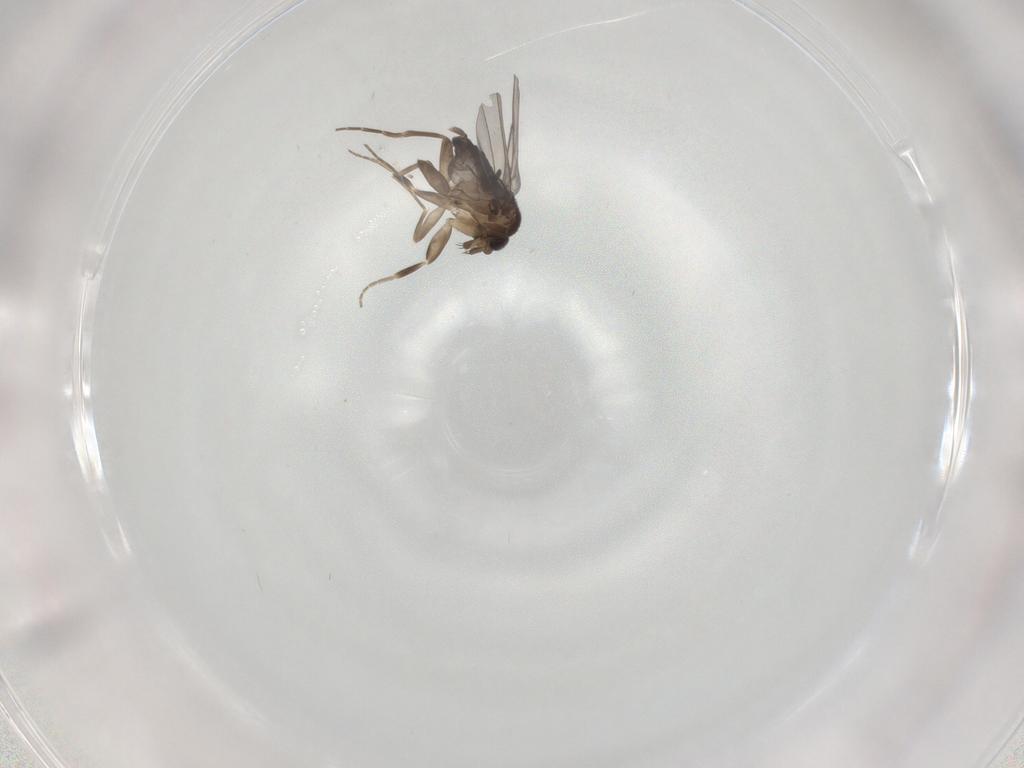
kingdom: Animalia
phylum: Arthropoda
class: Insecta
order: Diptera
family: Phoridae
